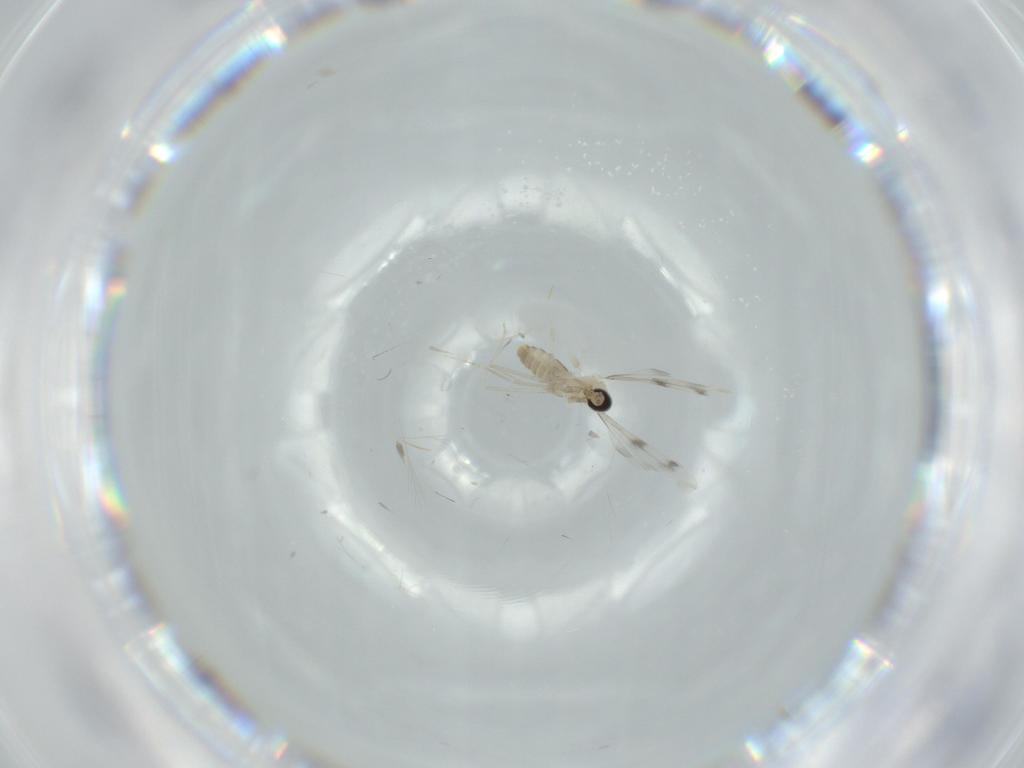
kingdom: Animalia
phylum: Arthropoda
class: Insecta
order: Diptera
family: Cecidomyiidae
